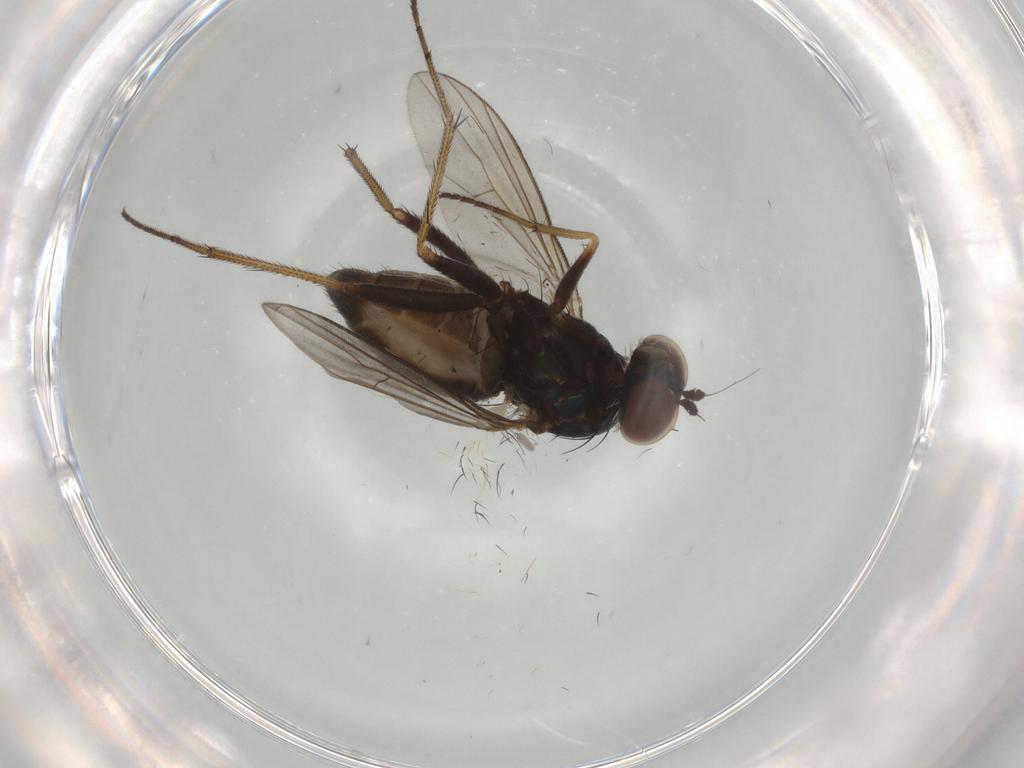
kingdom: Animalia
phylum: Arthropoda
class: Insecta
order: Diptera
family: Dolichopodidae
